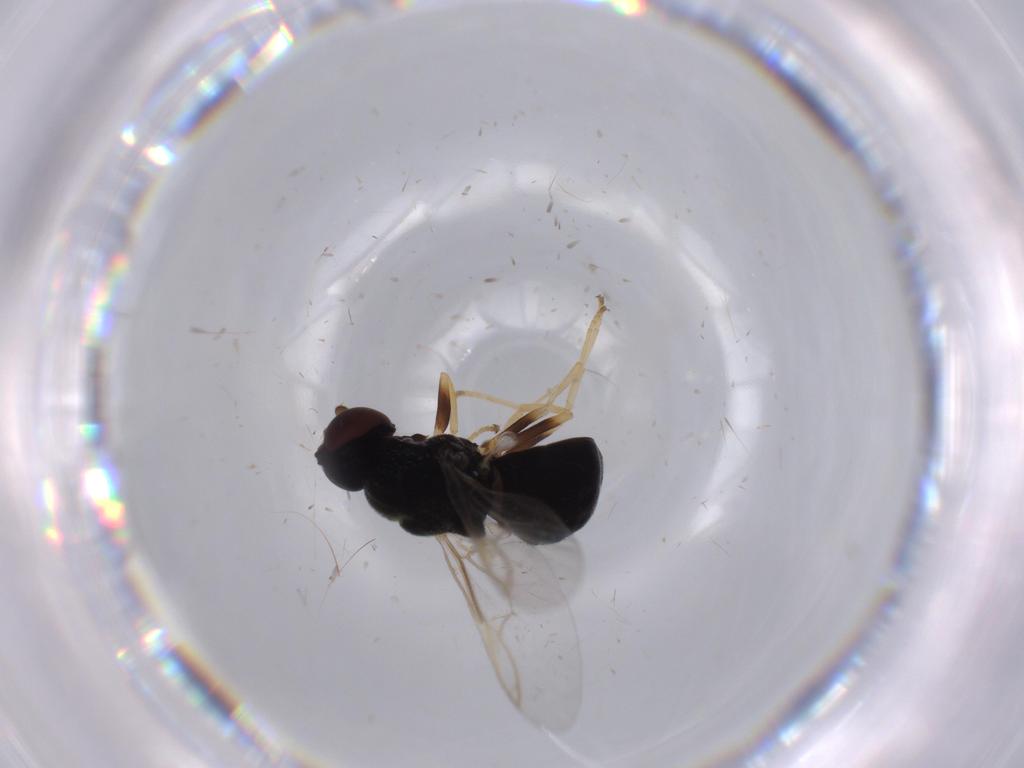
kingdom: Animalia
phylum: Arthropoda
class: Insecta
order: Diptera
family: Stratiomyidae
